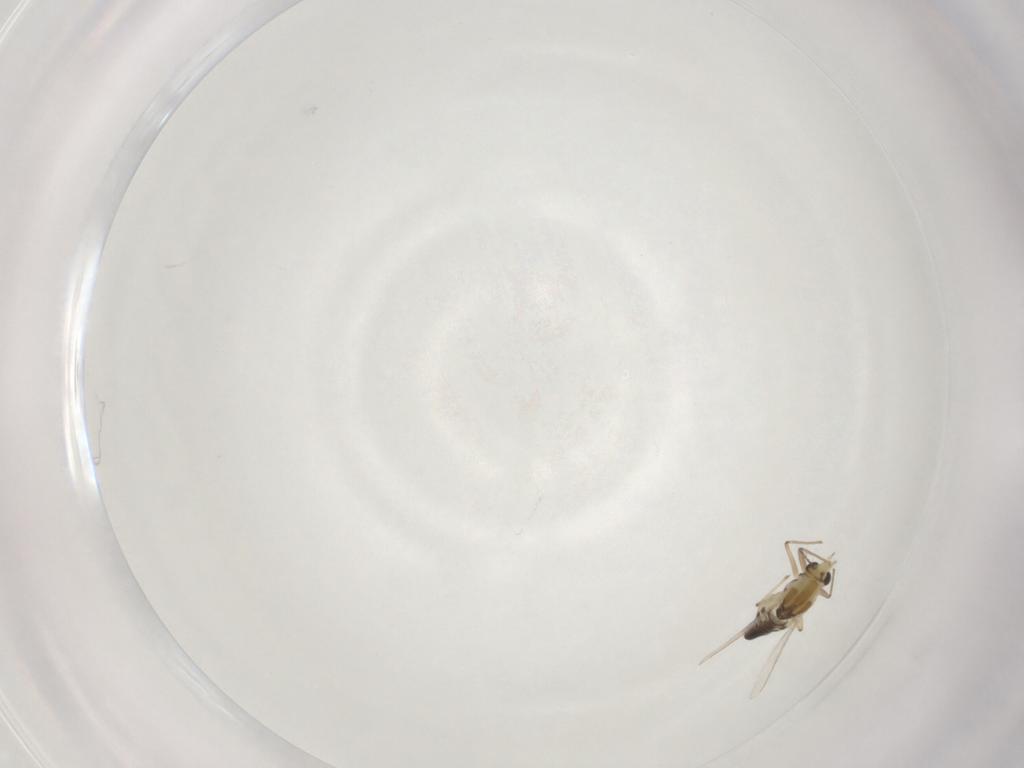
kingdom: Animalia
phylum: Arthropoda
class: Insecta
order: Diptera
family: Chironomidae
